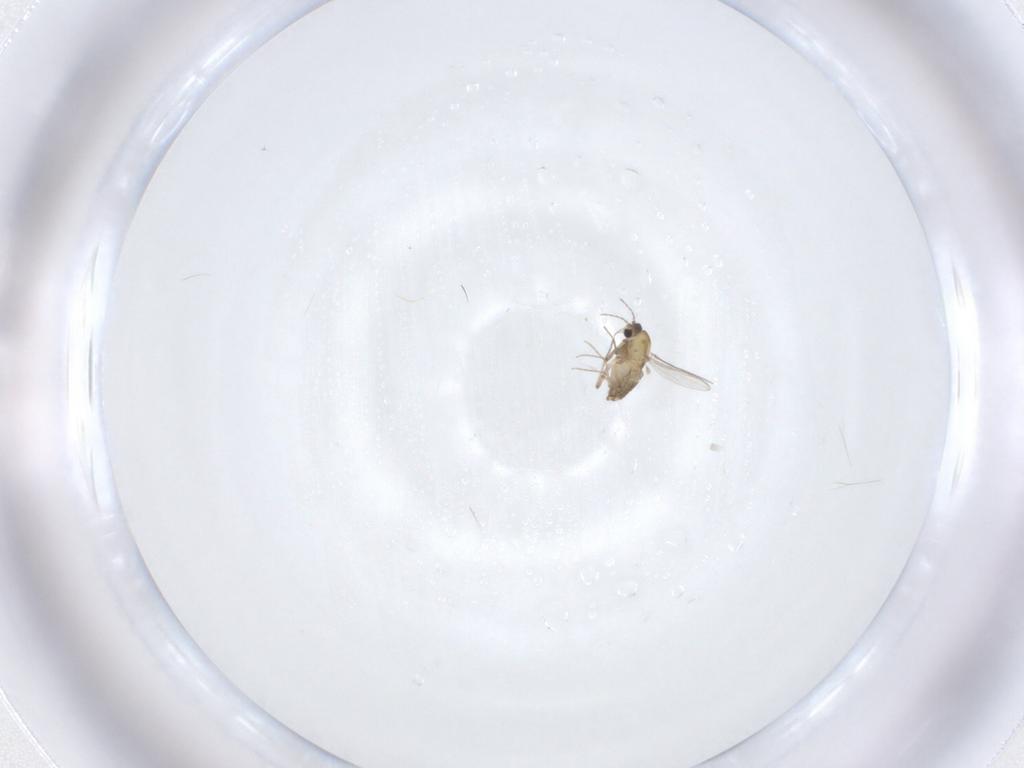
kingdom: Animalia
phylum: Arthropoda
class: Insecta
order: Diptera
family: Chironomidae
